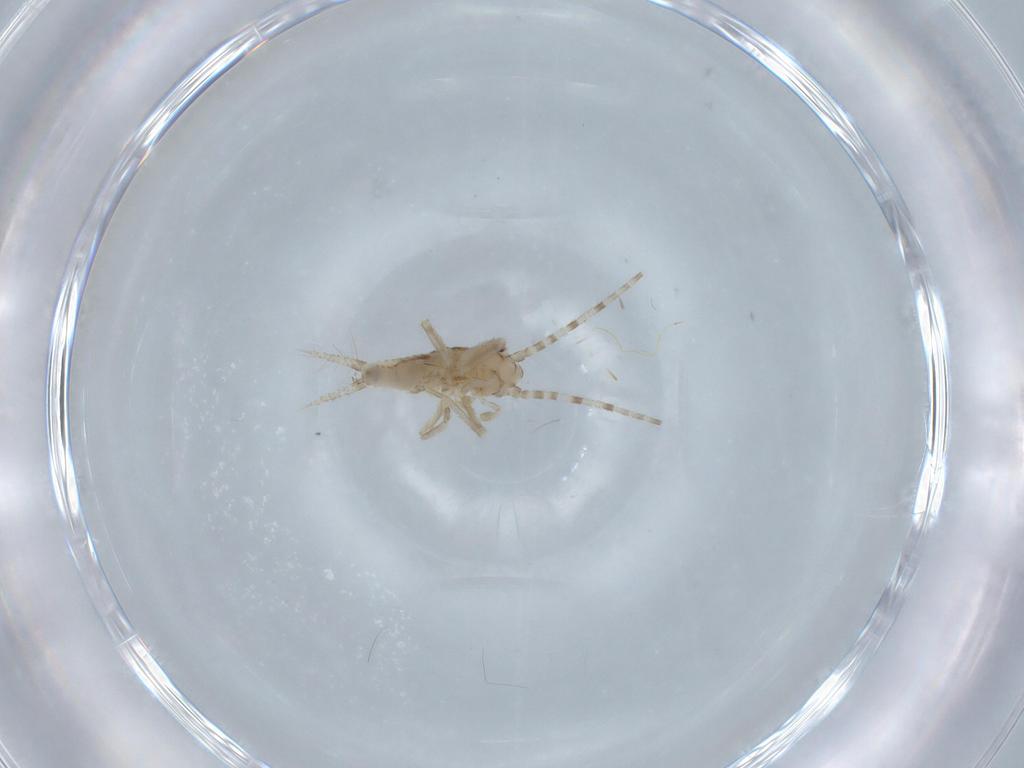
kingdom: Animalia
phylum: Arthropoda
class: Insecta
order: Orthoptera
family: Trigonidiidae
